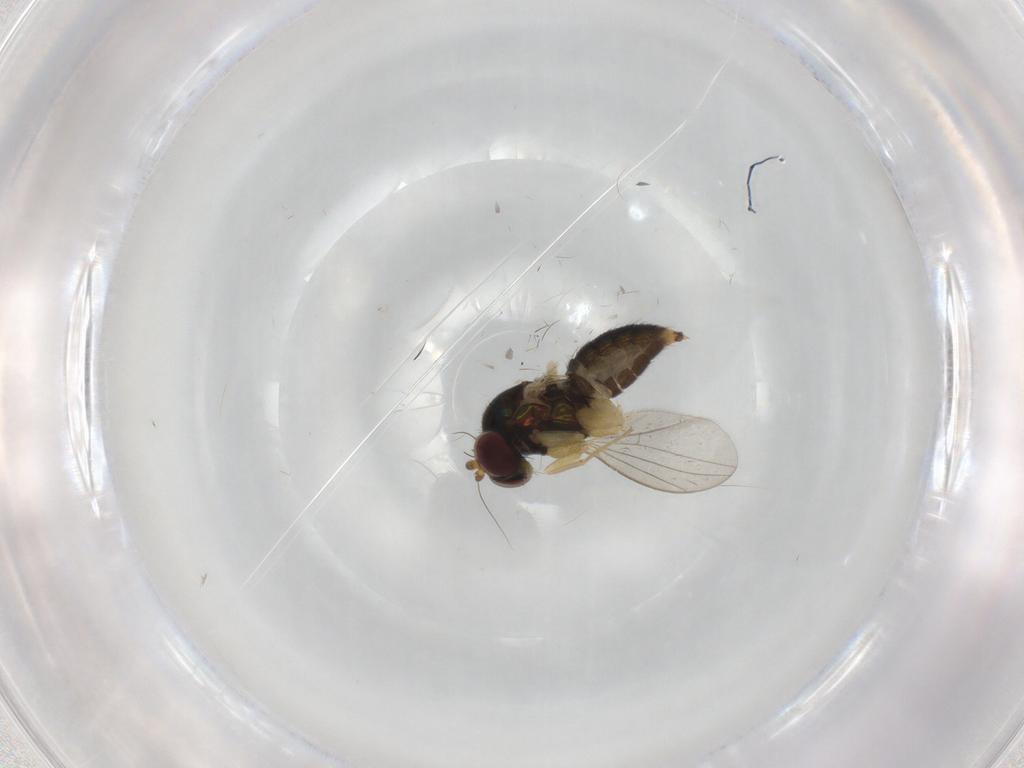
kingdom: Animalia
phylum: Arthropoda
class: Insecta
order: Diptera
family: Dolichopodidae
